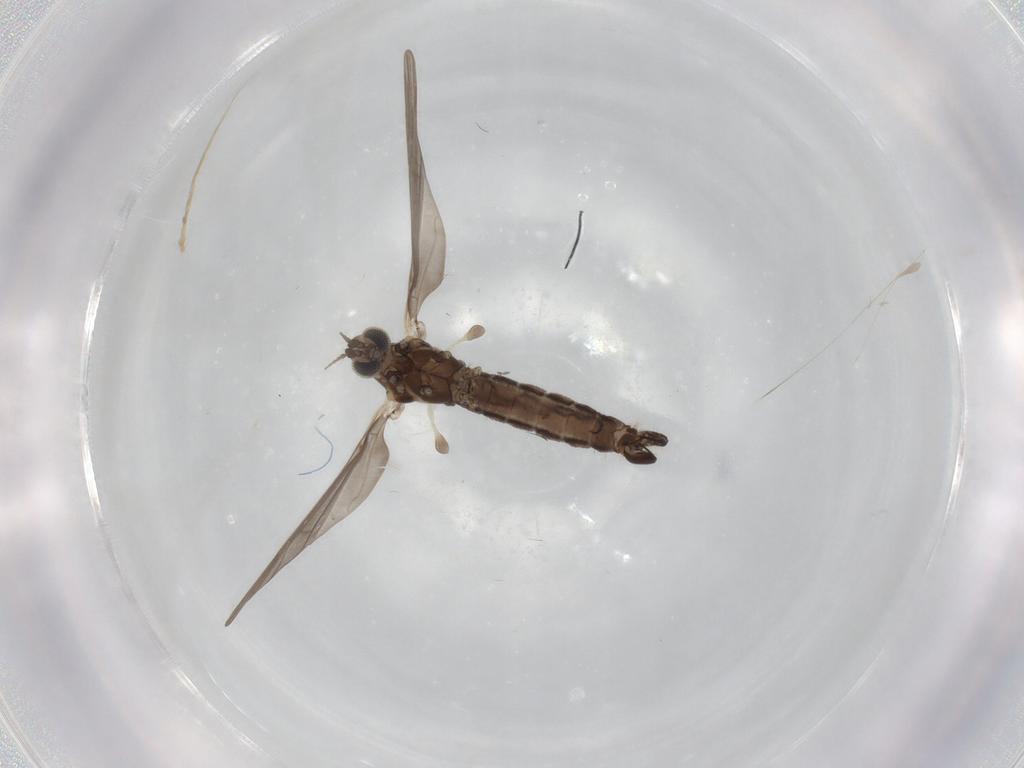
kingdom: Animalia
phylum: Arthropoda
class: Insecta
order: Diptera
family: Limoniidae
